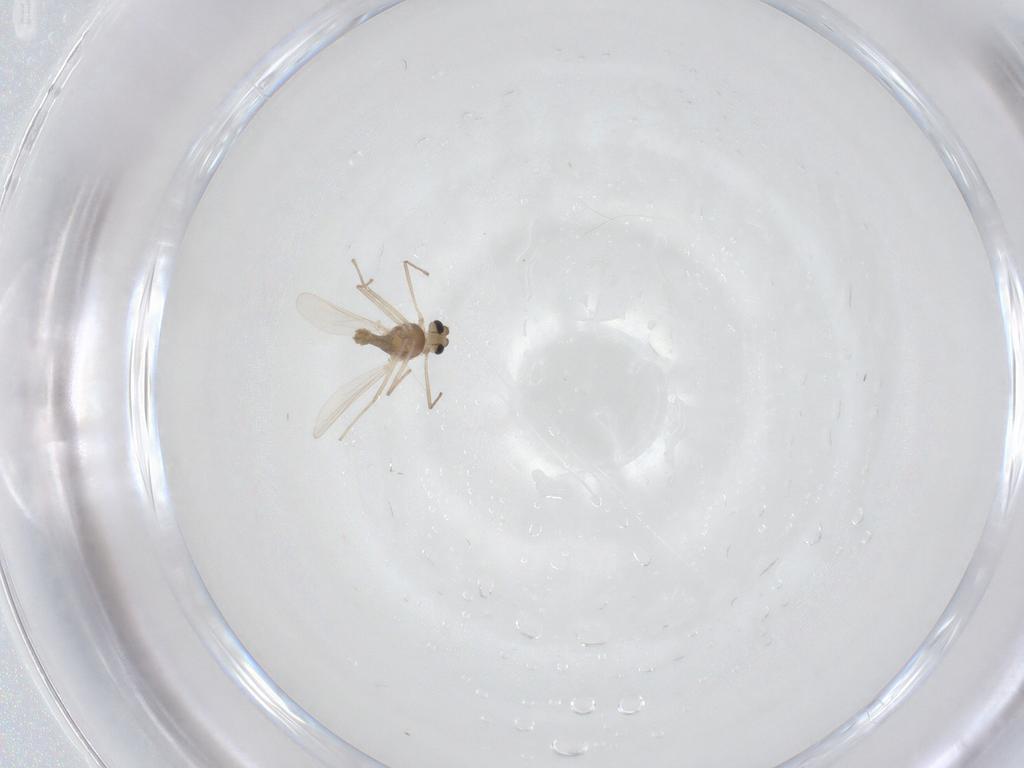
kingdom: Animalia
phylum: Arthropoda
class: Insecta
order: Diptera
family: Chironomidae
